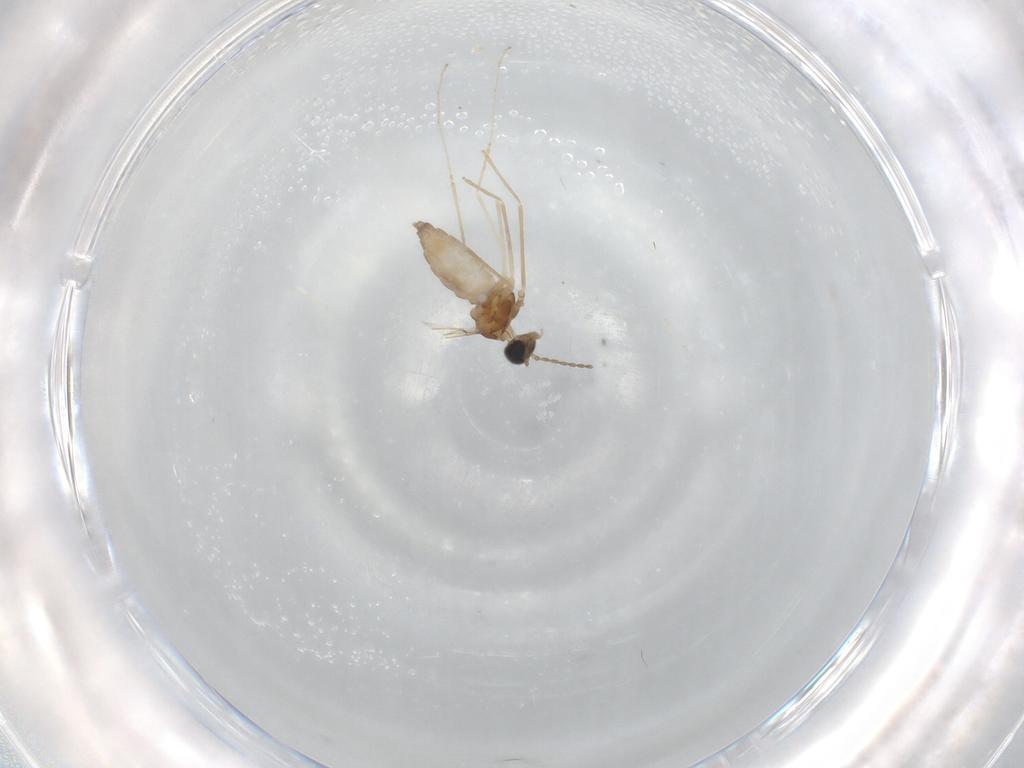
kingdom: Animalia
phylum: Arthropoda
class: Insecta
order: Diptera
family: Cecidomyiidae
